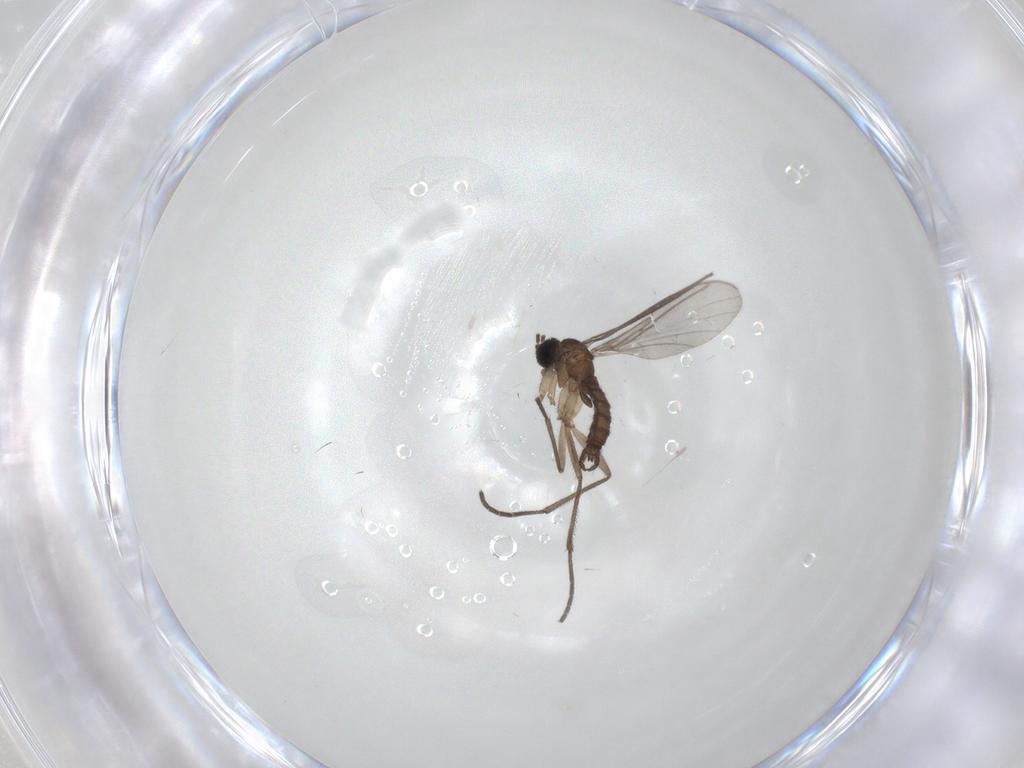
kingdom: Animalia
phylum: Arthropoda
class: Insecta
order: Diptera
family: Sciaridae
